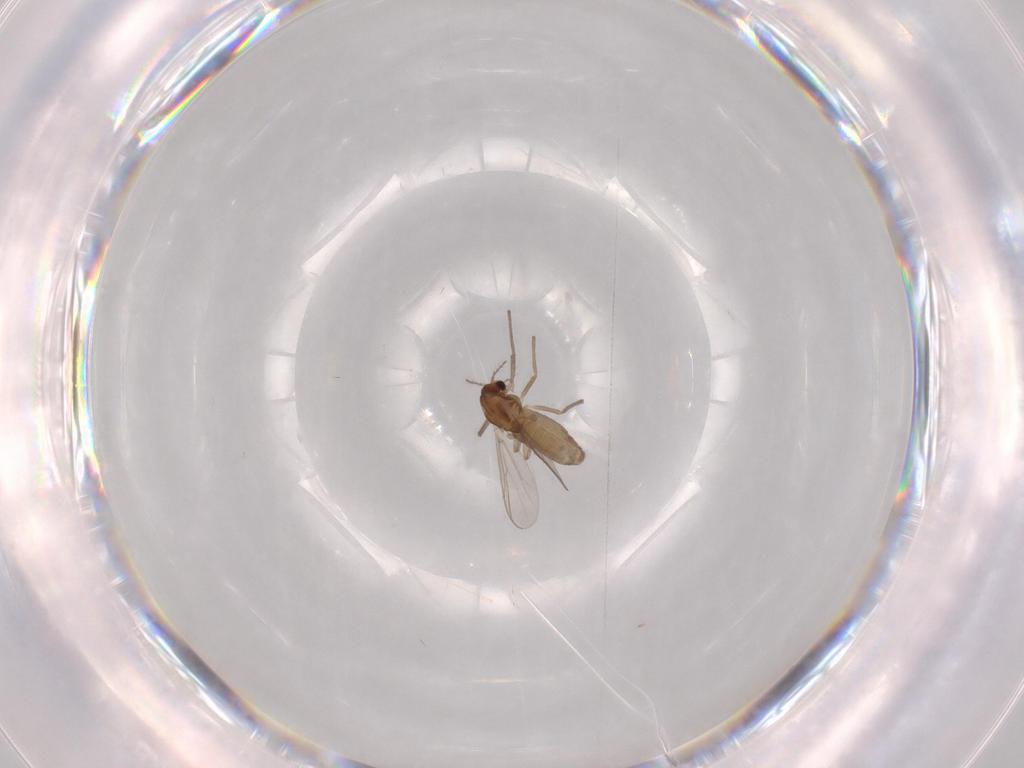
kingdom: Animalia
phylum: Arthropoda
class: Insecta
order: Diptera
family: Chironomidae
